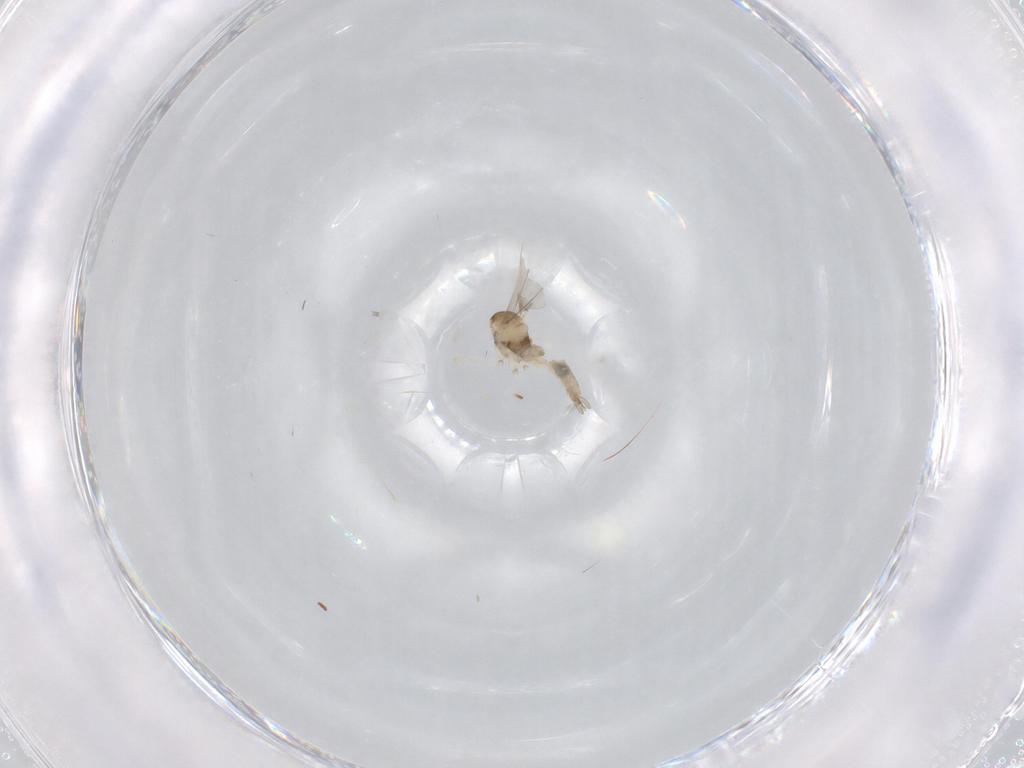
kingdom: Animalia
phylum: Arthropoda
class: Insecta
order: Diptera
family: Cecidomyiidae
